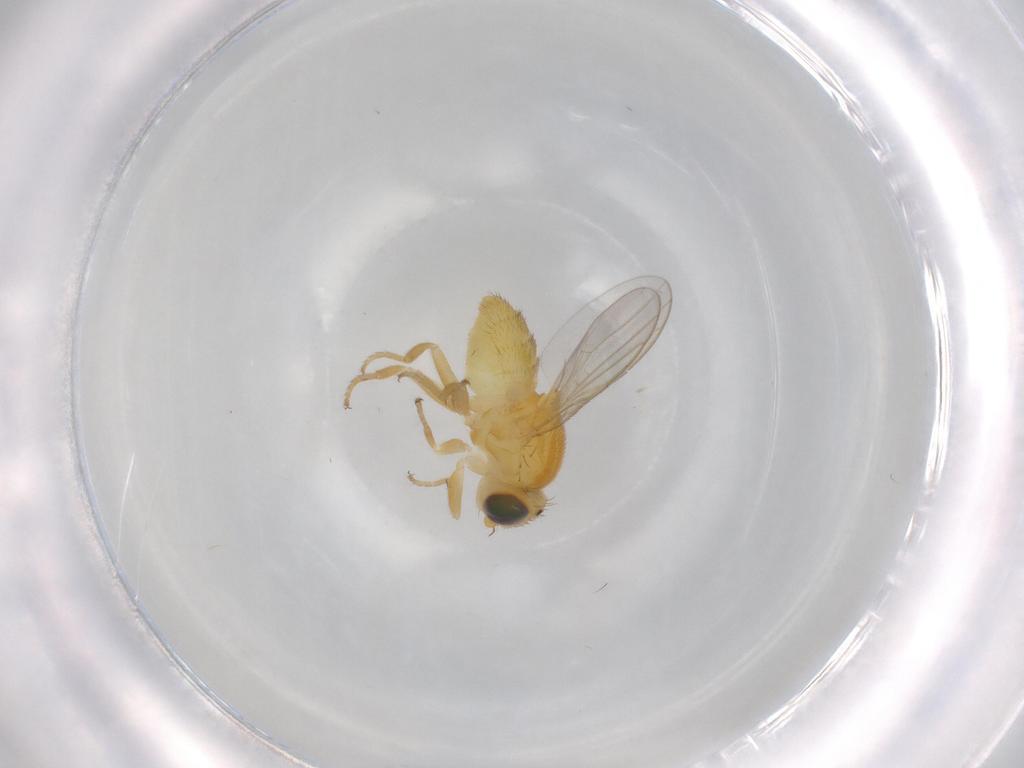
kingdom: Animalia
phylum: Arthropoda
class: Insecta
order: Diptera
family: Chloropidae
